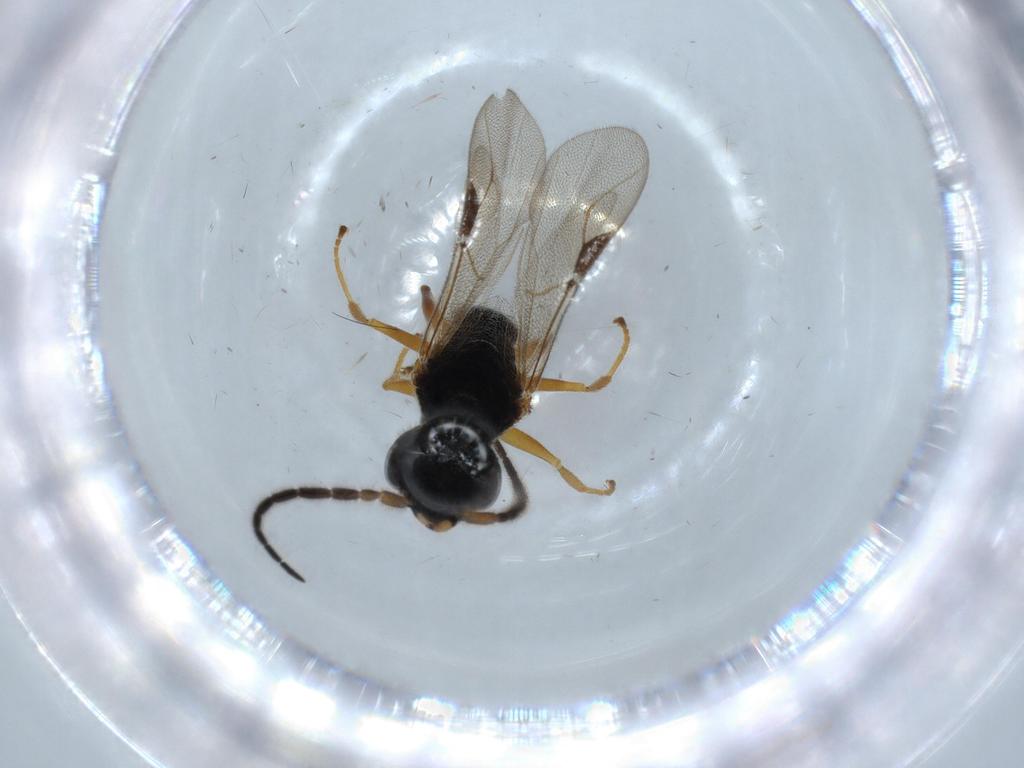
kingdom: Animalia
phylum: Arthropoda
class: Insecta
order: Hymenoptera
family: Dryinidae
